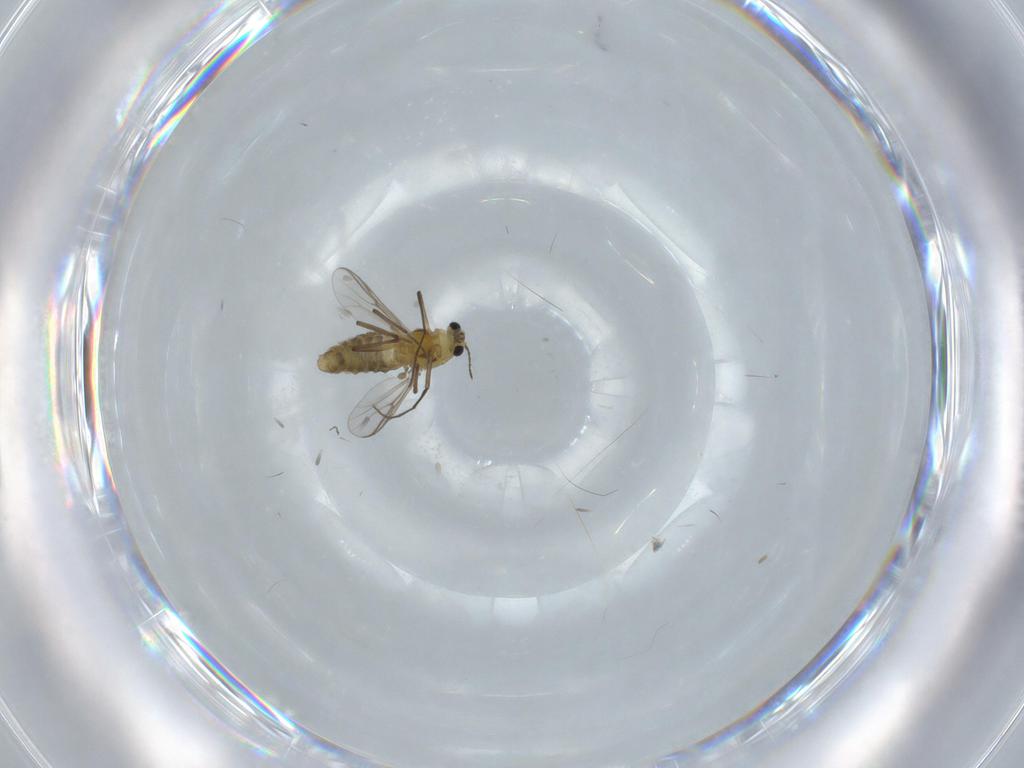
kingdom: Animalia
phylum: Arthropoda
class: Insecta
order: Diptera
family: Cecidomyiidae
